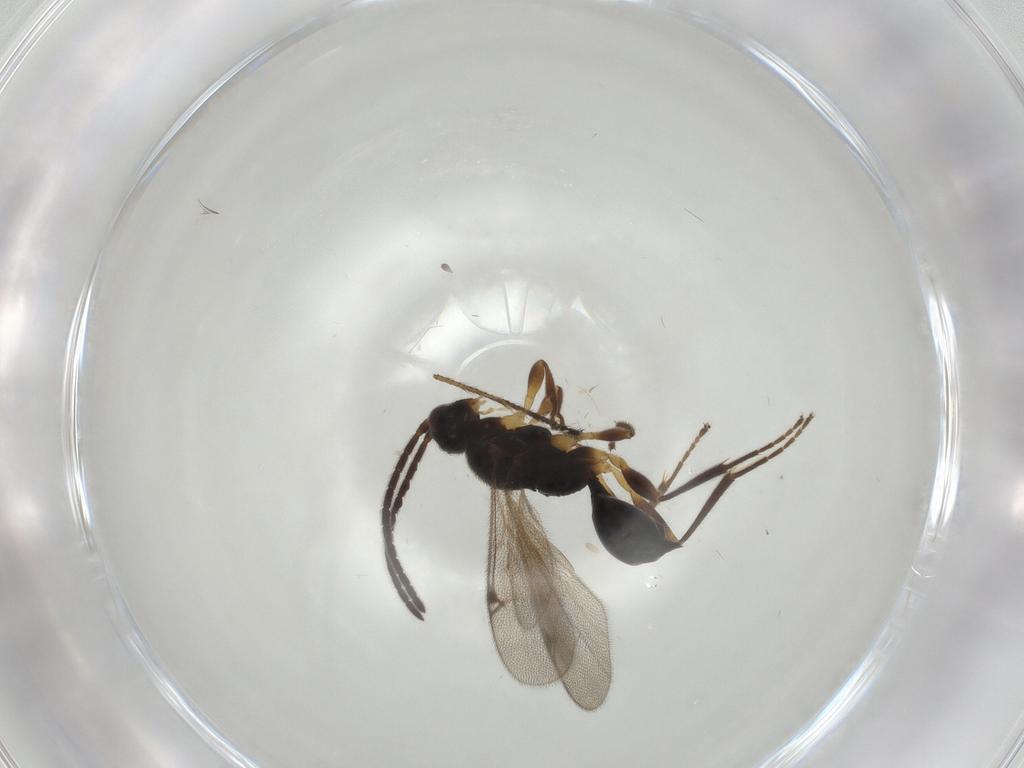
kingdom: Animalia
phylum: Arthropoda
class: Insecta
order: Hymenoptera
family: Proctotrupidae
